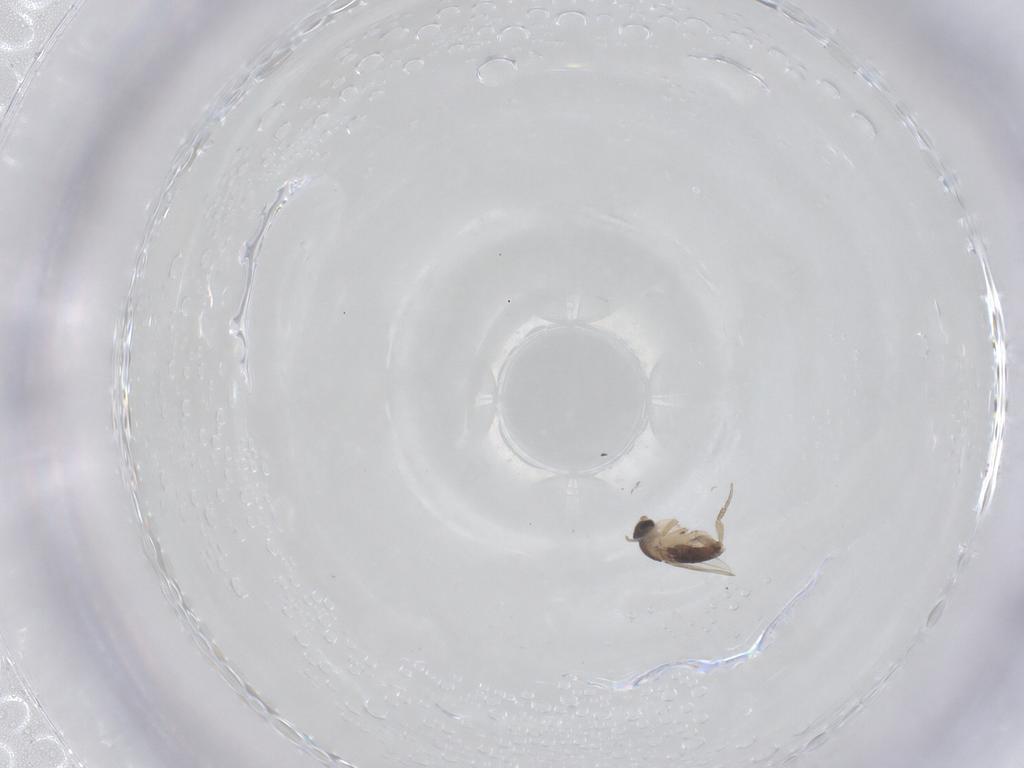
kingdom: Animalia
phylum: Arthropoda
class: Insecta
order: Diptera
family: Phoridae
